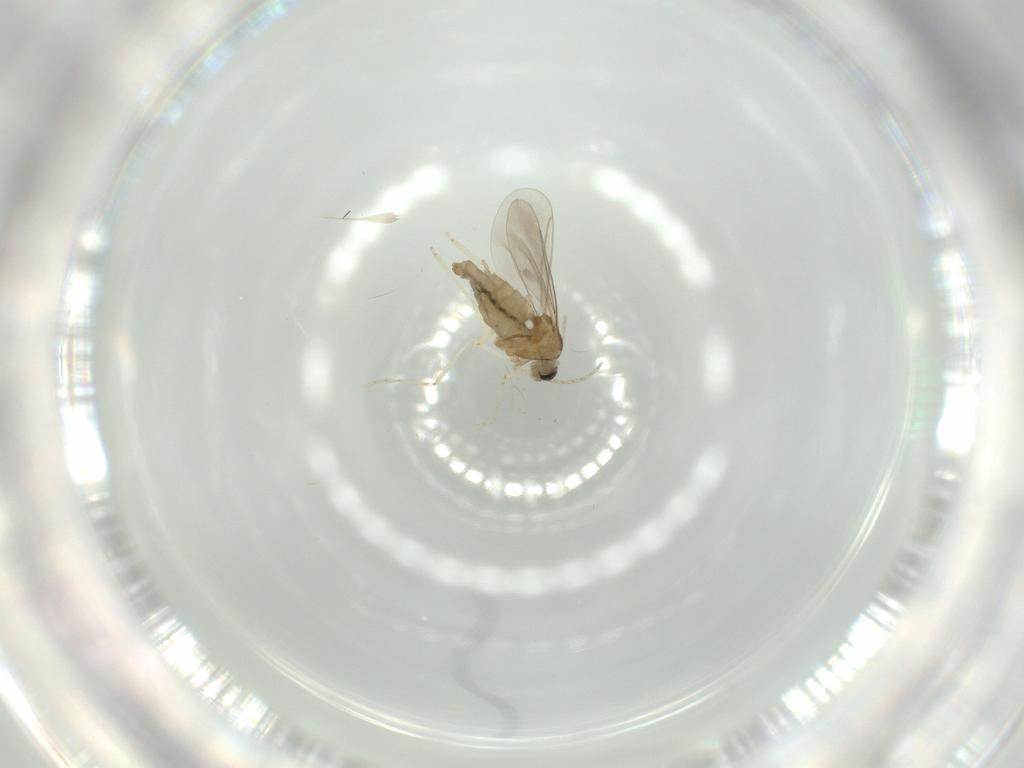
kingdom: Animalia
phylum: Arthropoda
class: Insecta
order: Diptera
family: Cecidomyiidae
